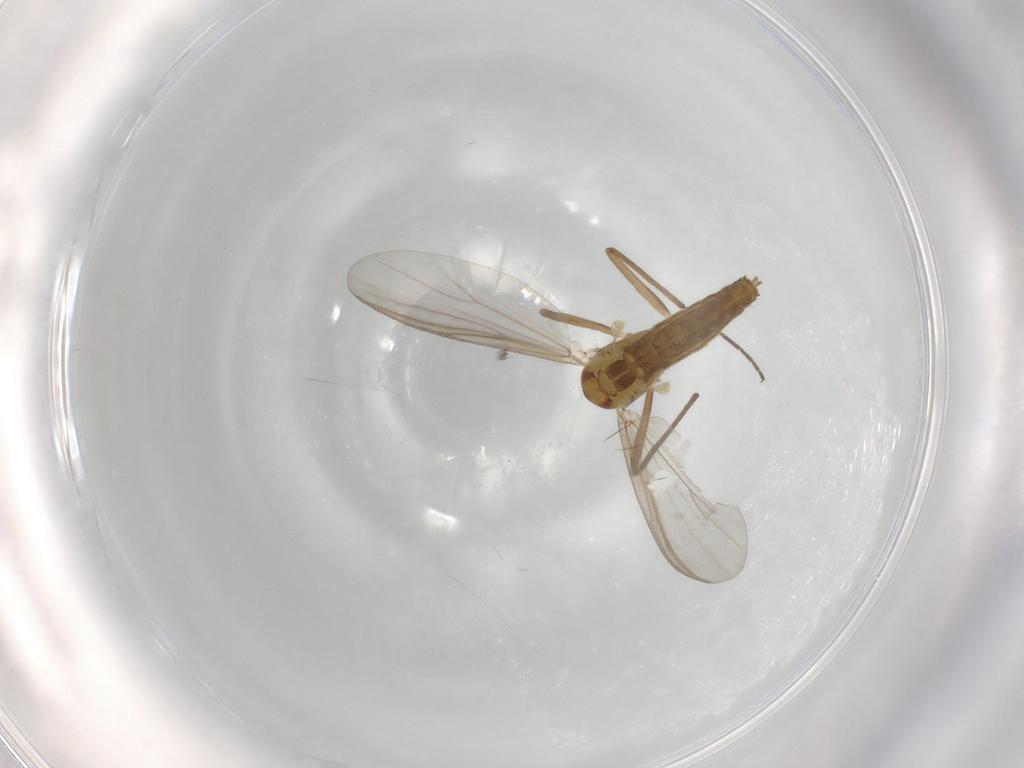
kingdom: Animalia
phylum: Arthropoda
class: Insecta
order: Diptera
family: Chironomidae
